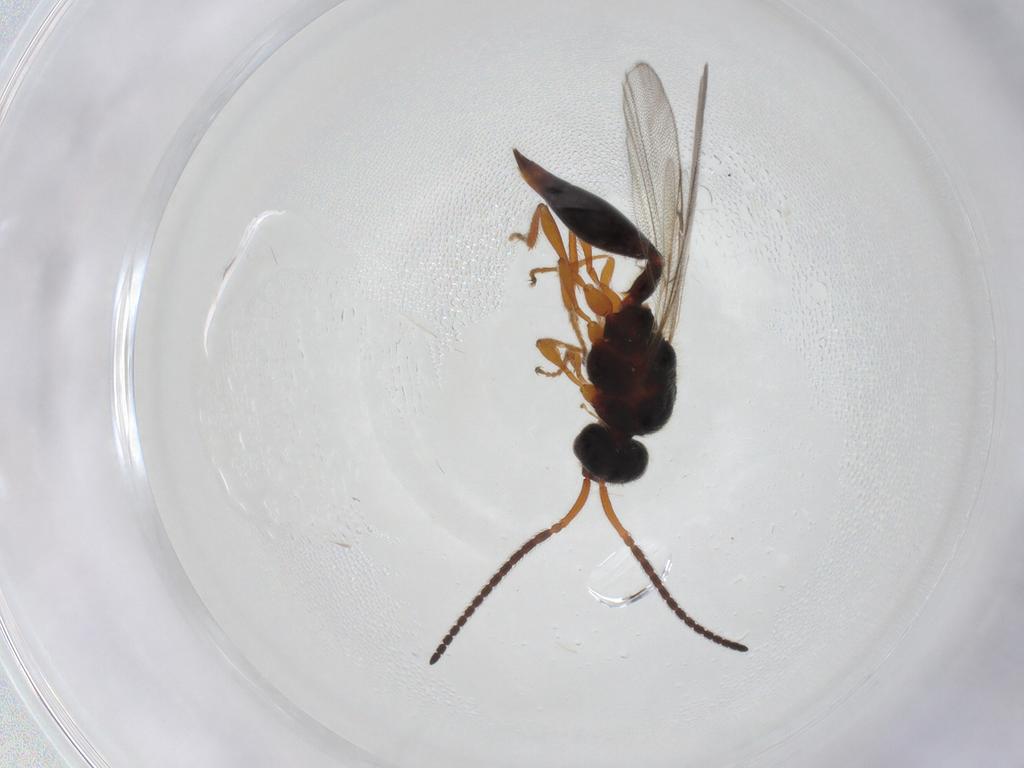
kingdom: Animalia
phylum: Arthropoda
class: Insecta
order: Hymenoptera
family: Diapriidae
